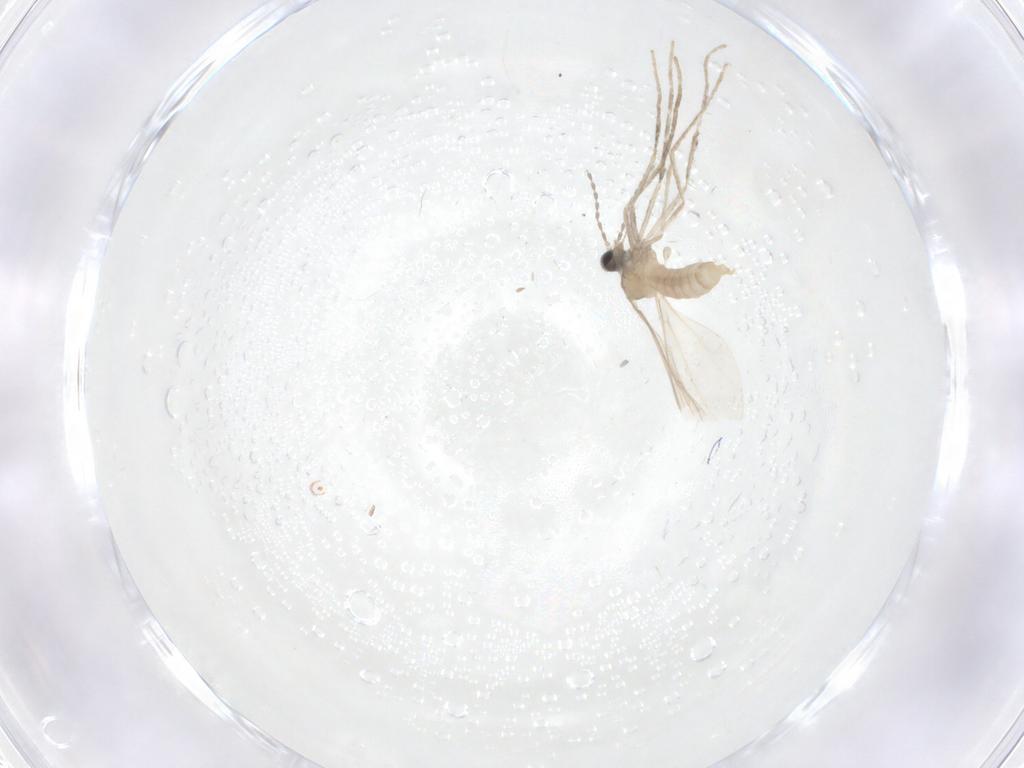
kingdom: Animalia
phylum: Arthropoda
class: Insecta
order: Diptera
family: Cecidomyiidae
